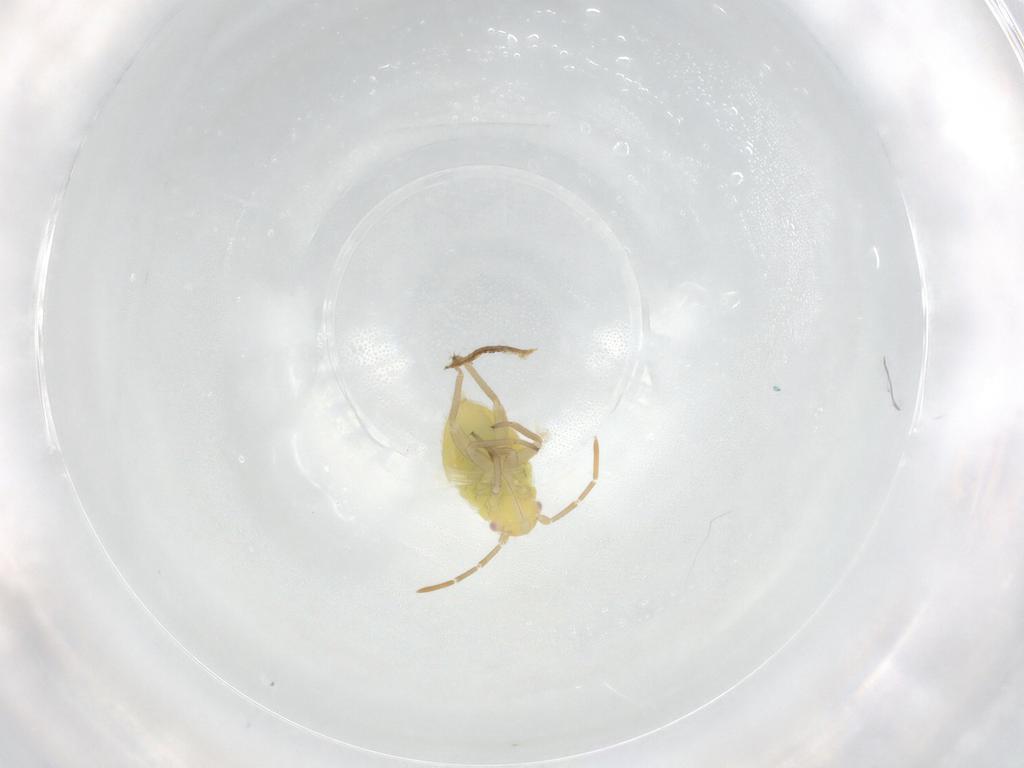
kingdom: Animalia
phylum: Arthropoda
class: Insecta
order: Hemiptera
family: Miridae
